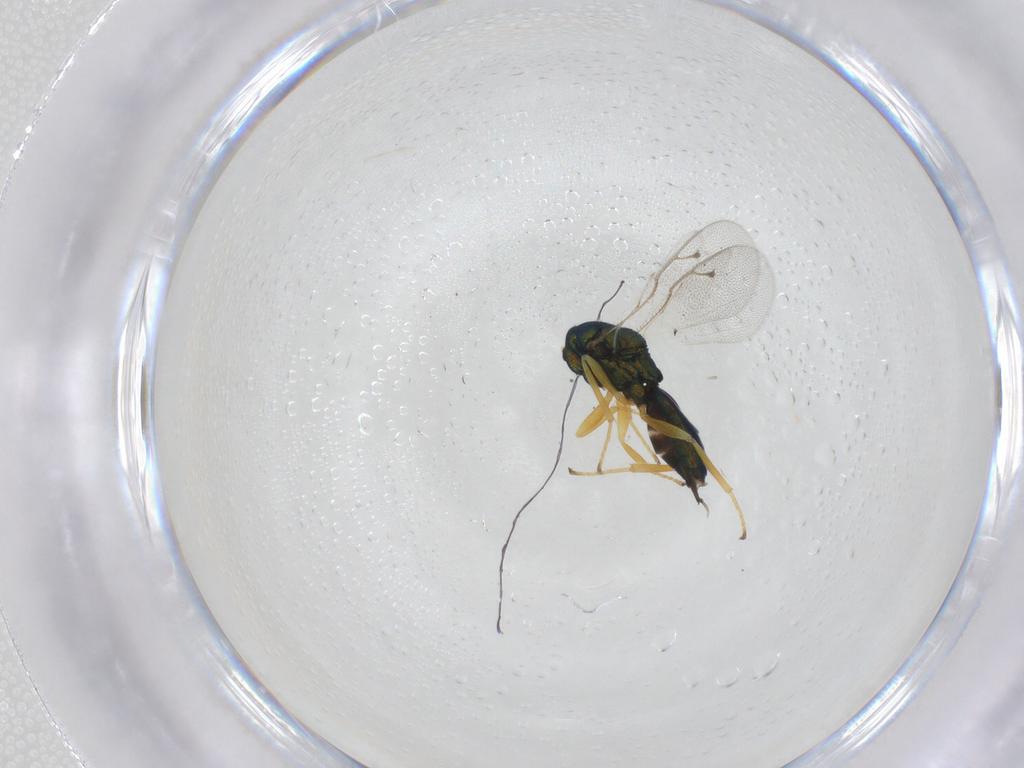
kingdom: Animalia
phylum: Arthropoda
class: Insecta
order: Hymenoptera
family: Pteromalidae
